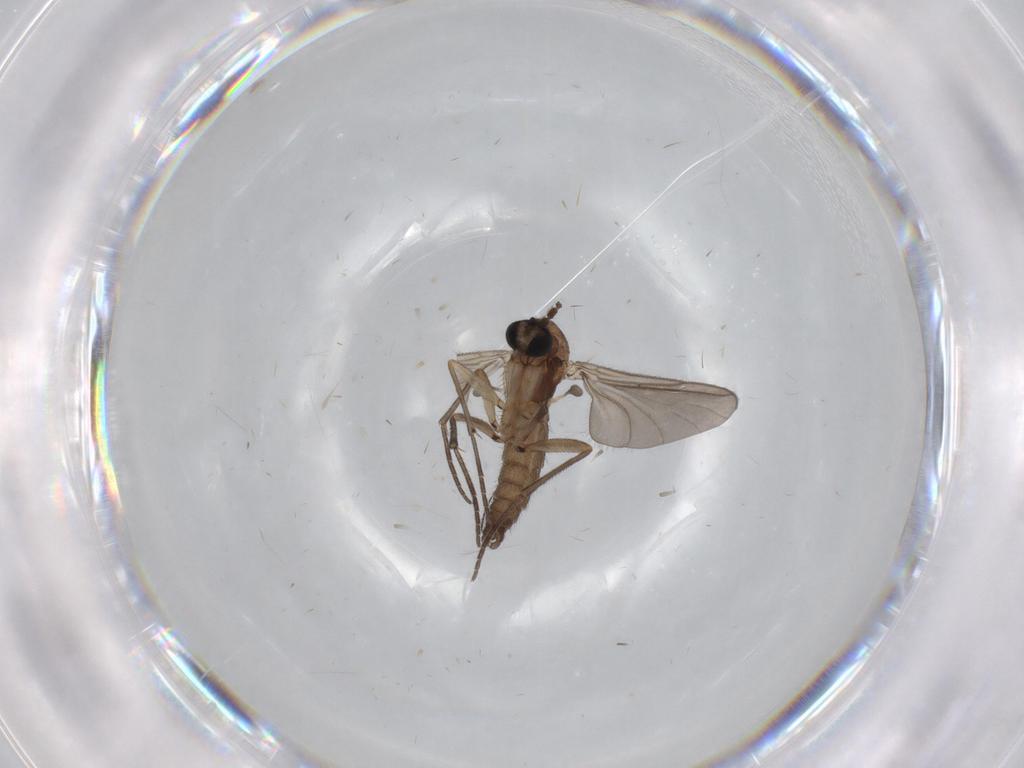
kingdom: Animalia
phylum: Arthropoda
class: Insecta
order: Diptera
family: Sciaridae
